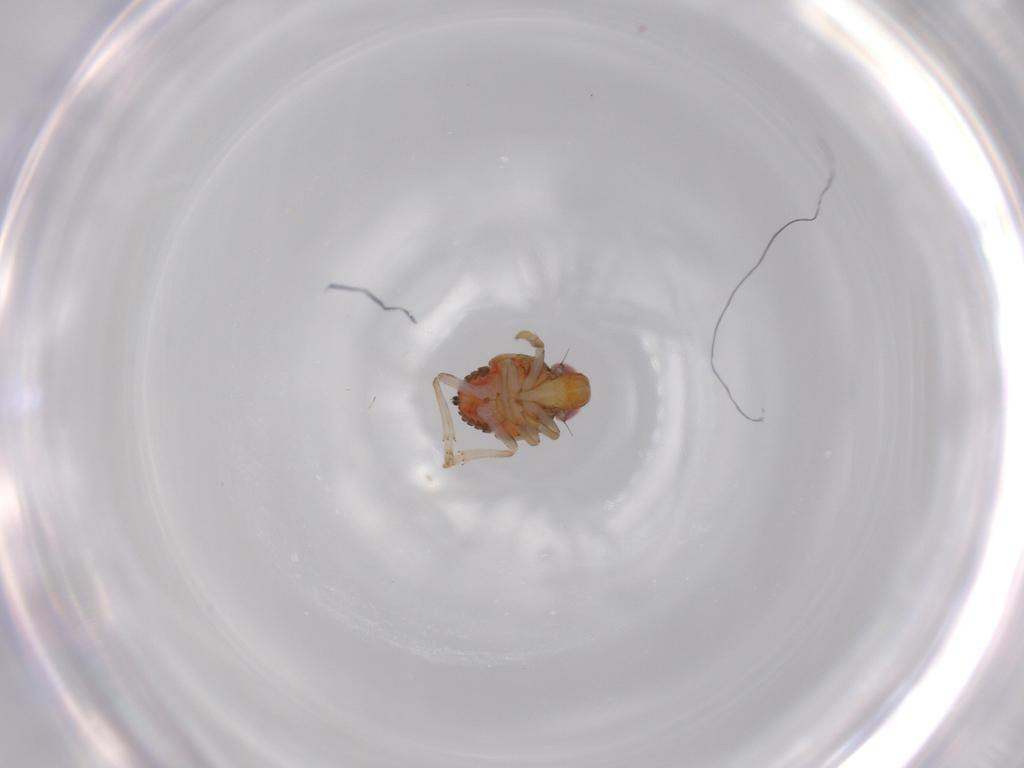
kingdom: Animalia
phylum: Arthropoda
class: Insecta
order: Hemiptera
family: Issidae
